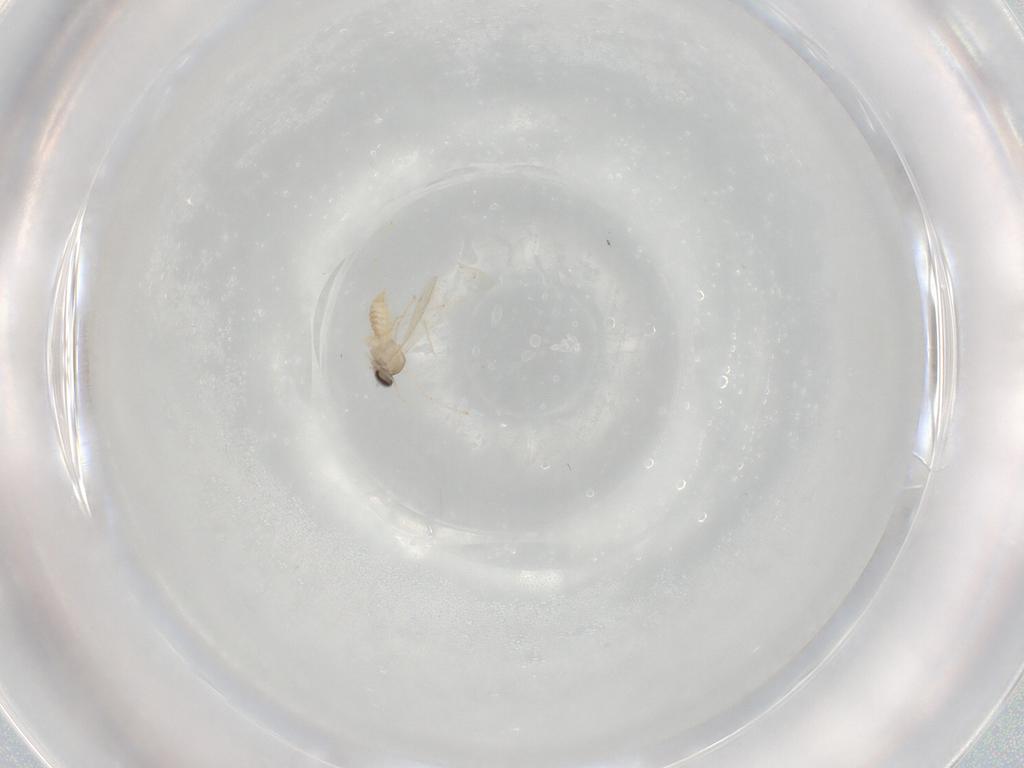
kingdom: Animalia
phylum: Arthropoda
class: Insecta
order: Diptera
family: Cecidomyiidae
